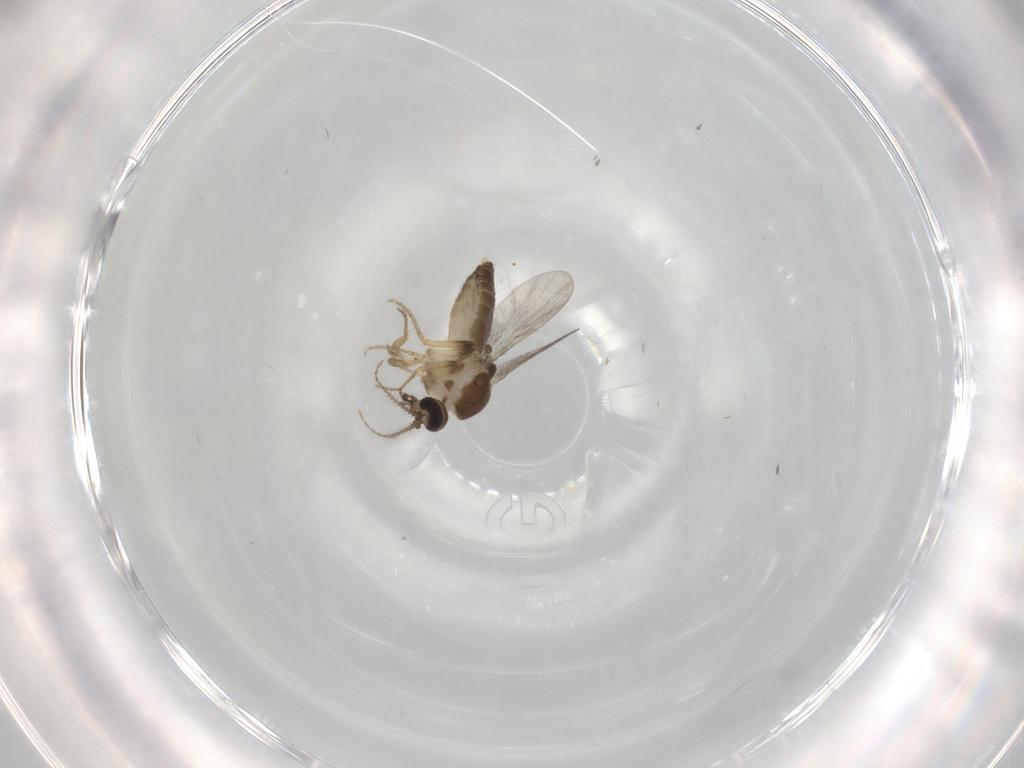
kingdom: Animalia
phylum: Arthropoda
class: Insecta
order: Diptera
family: Ceratopogonidae
